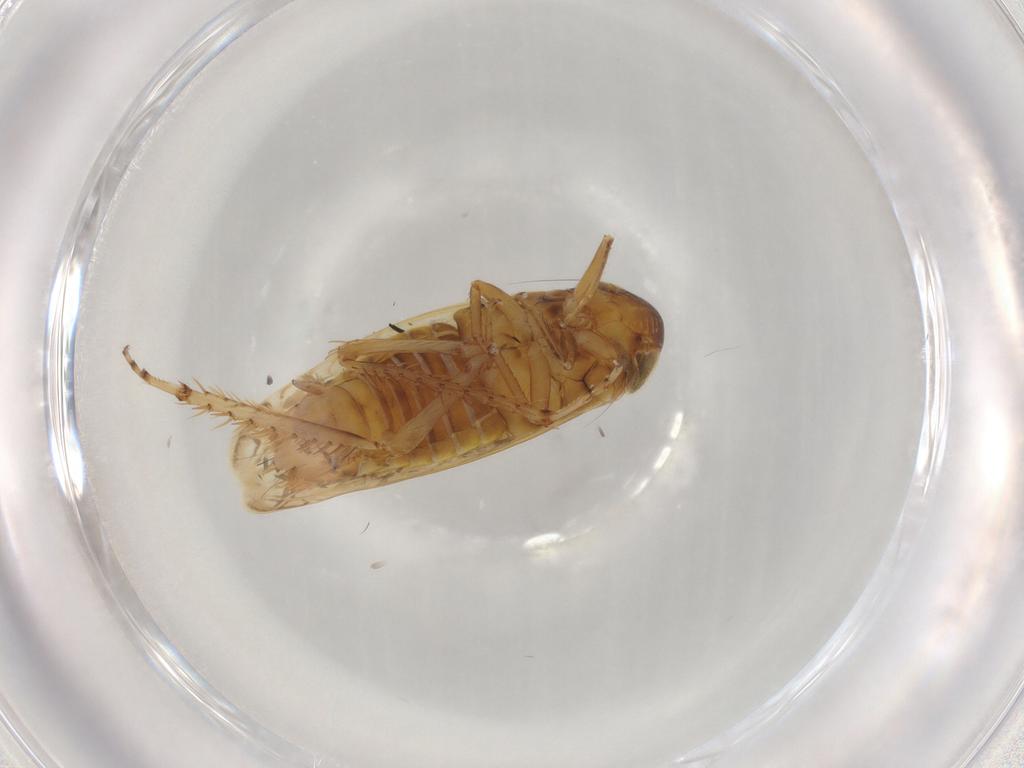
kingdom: Animalia
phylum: Arthropoda
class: Insecta
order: Hemiptera
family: Cicadellidae
